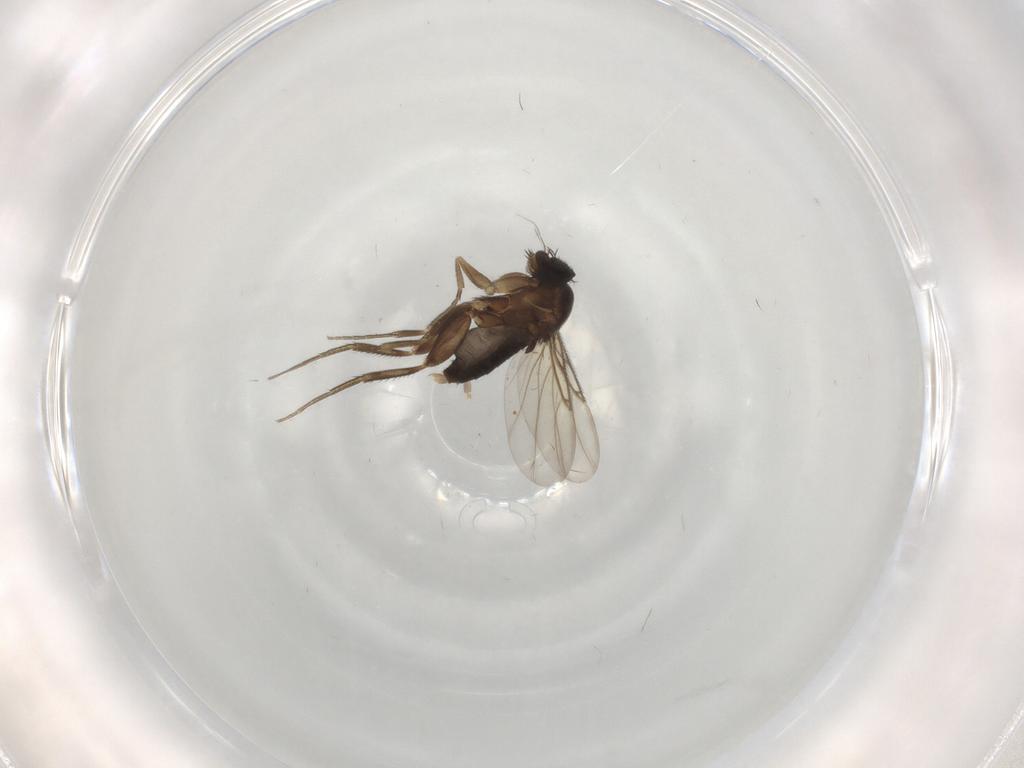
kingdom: Animalia
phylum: Arthropoda
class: Insecta
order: Diptera
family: Phoridae
